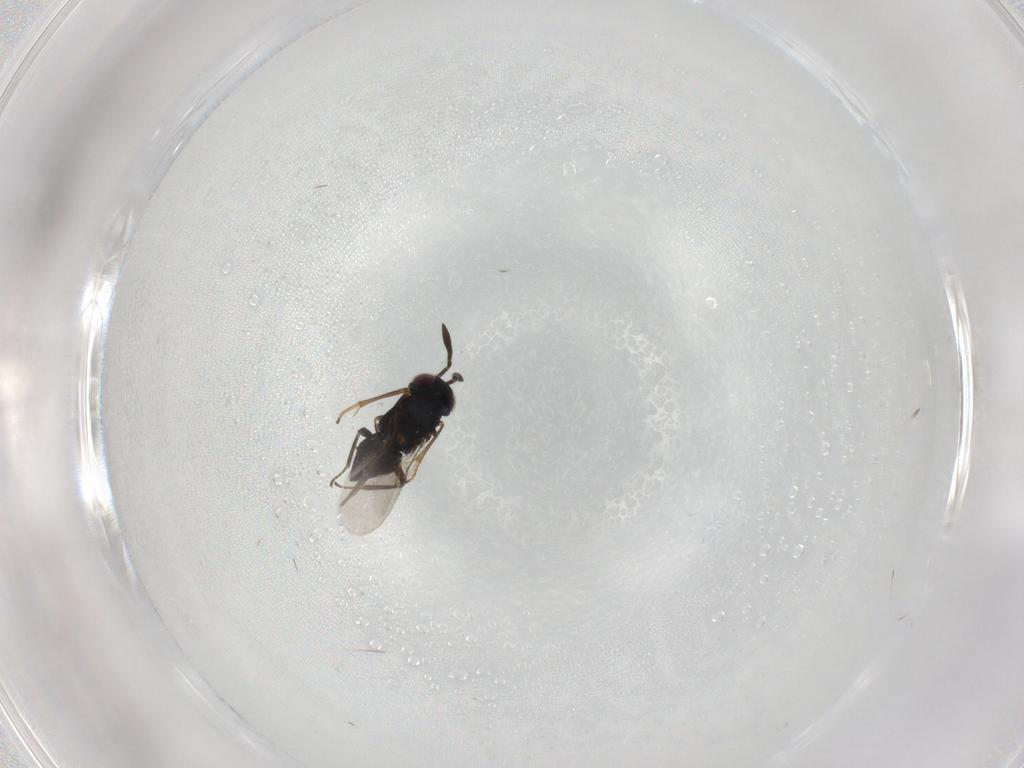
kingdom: Animalia
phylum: Arthropoda
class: Insecta
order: Hymenoptera
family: Encyrtidae
